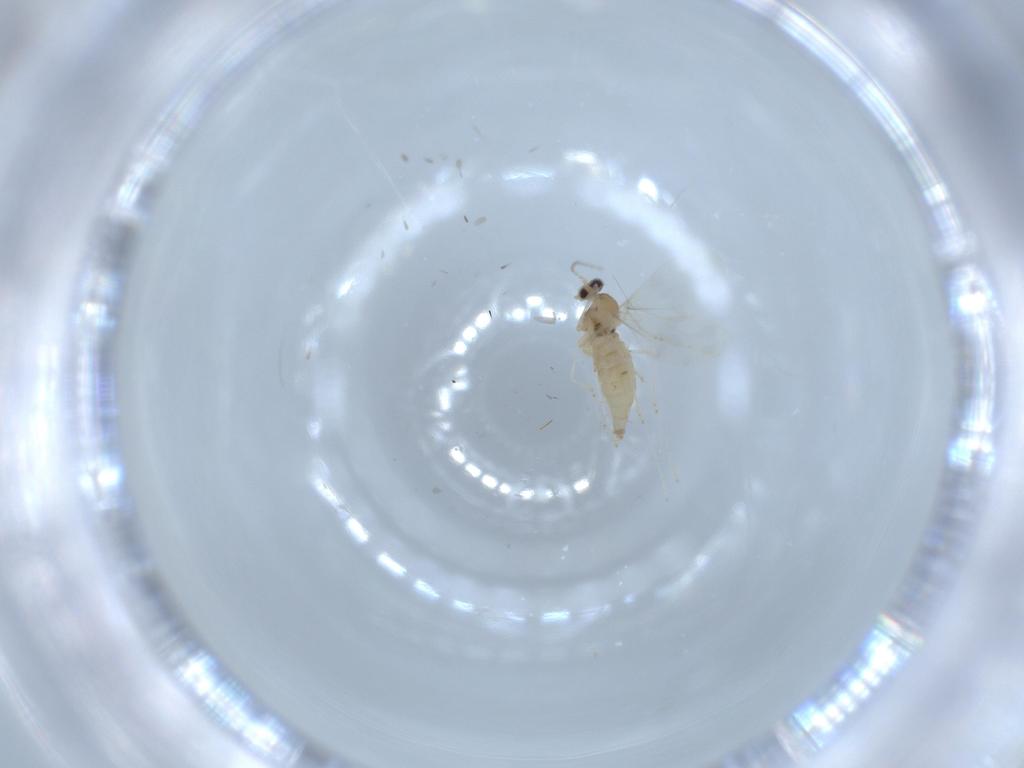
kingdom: Animalia
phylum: Arthropoda
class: Insecta
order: Diptera
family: Cecidomyiidae
